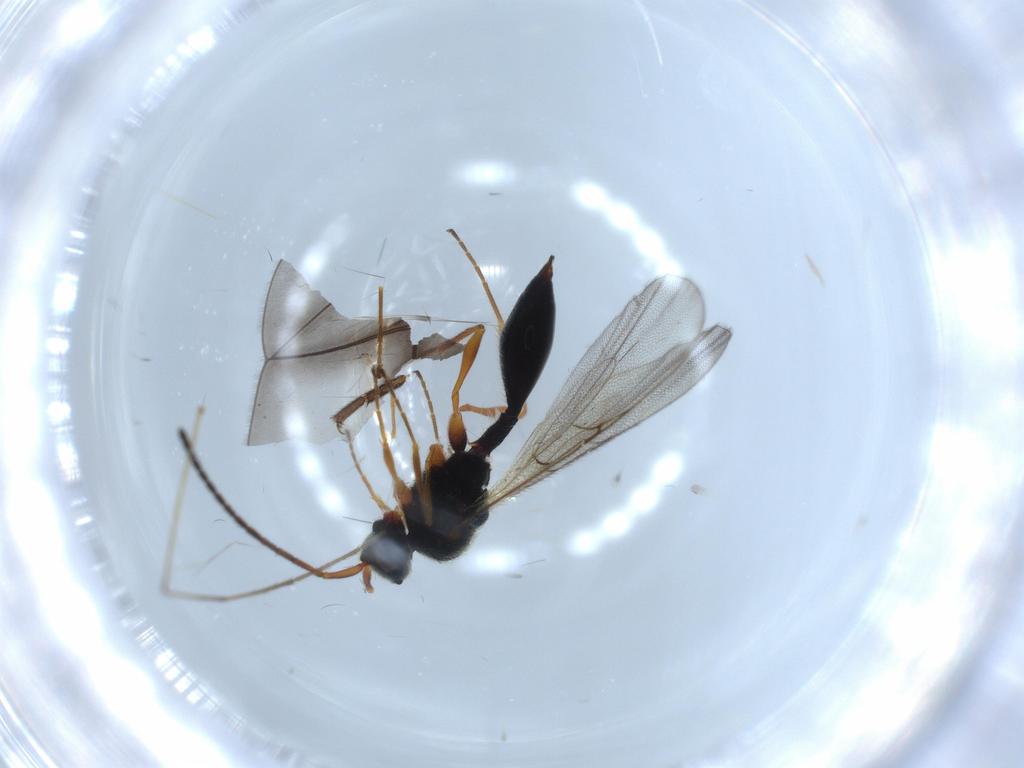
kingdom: Animalia
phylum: Arthropoda
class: Insecta
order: Hymenoptera
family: Diapriidae
